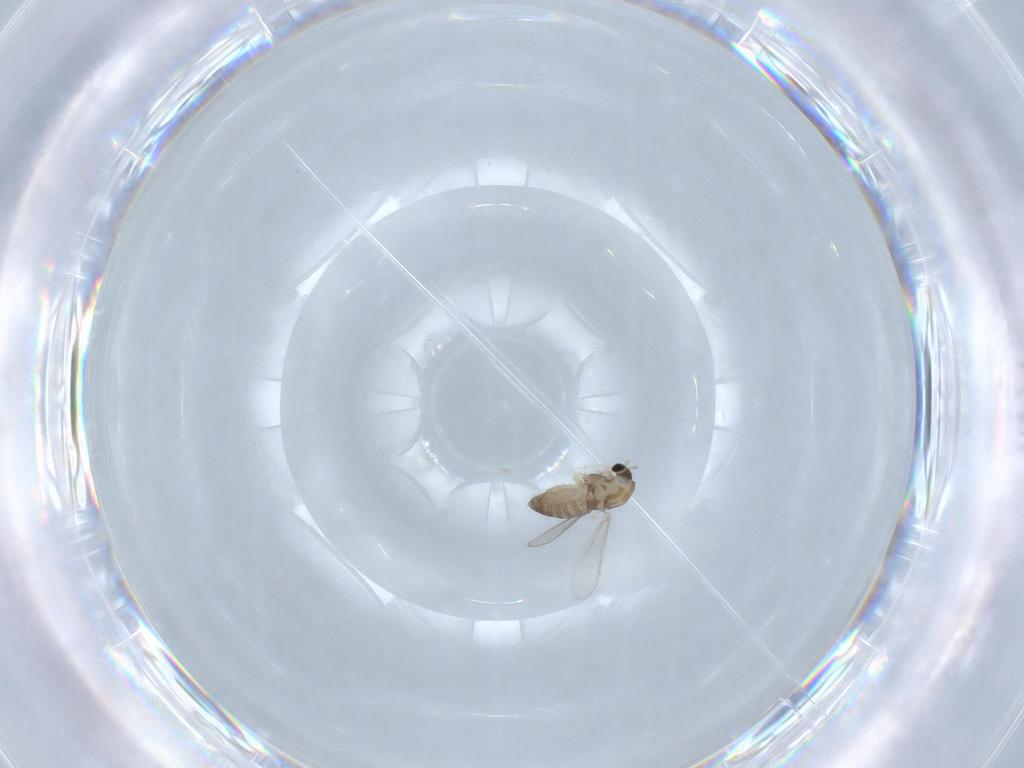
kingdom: Animalia
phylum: Arthropoda
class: Insecta
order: Diptera
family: Chironomidae
